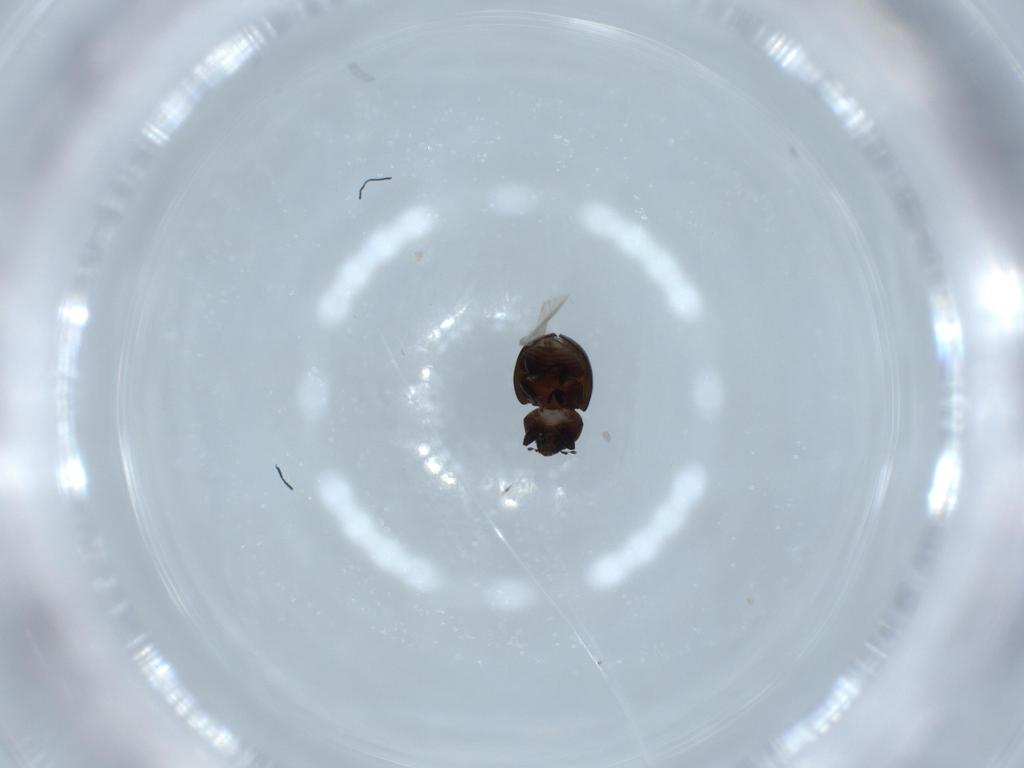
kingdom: Animalia
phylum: Arthropoda
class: Insecta
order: Coleoptera
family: Coccinellidae
